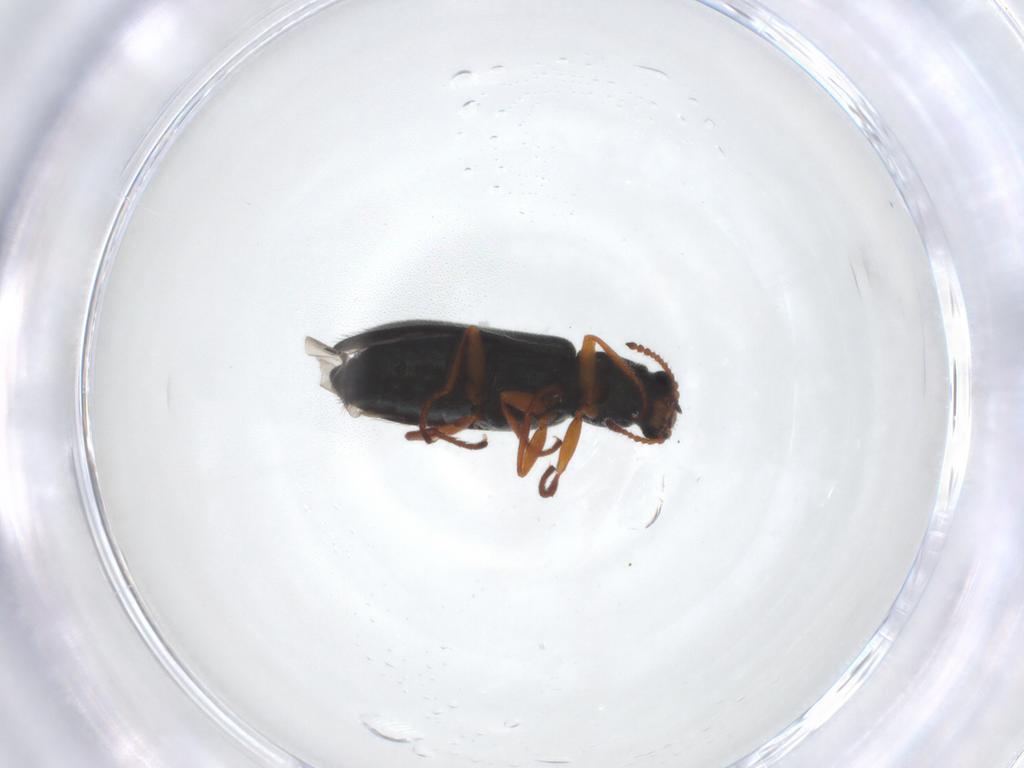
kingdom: Animalia
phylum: Arthropoda
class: Insecta
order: Coleoptera
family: Melyridae
